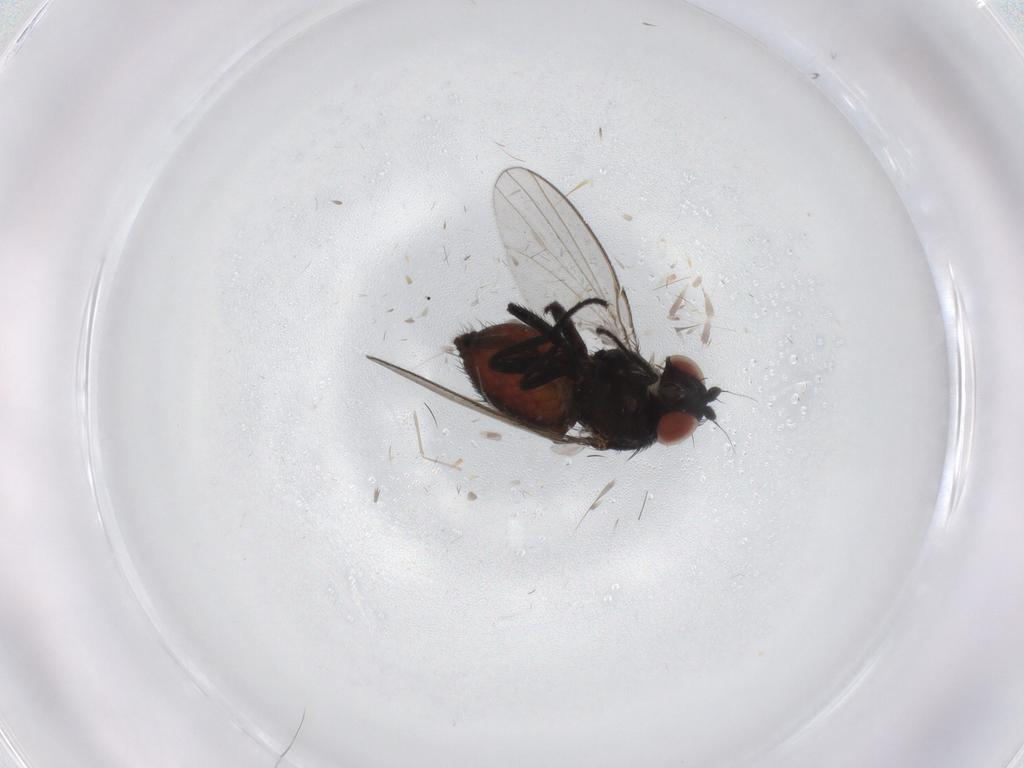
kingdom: Animalia
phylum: Arthropoda
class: Insecta
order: Diptera
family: Milichiidae
